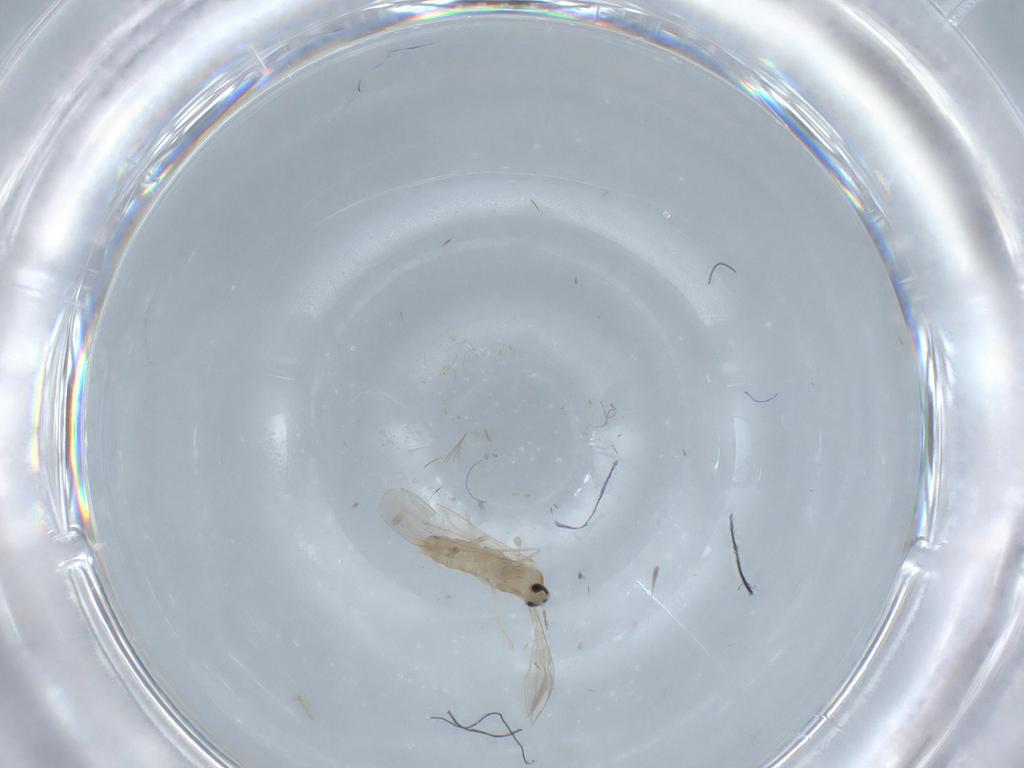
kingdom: Animalia
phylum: Arthropoda
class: Insecta
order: Diptera
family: Cecidomyiidae
